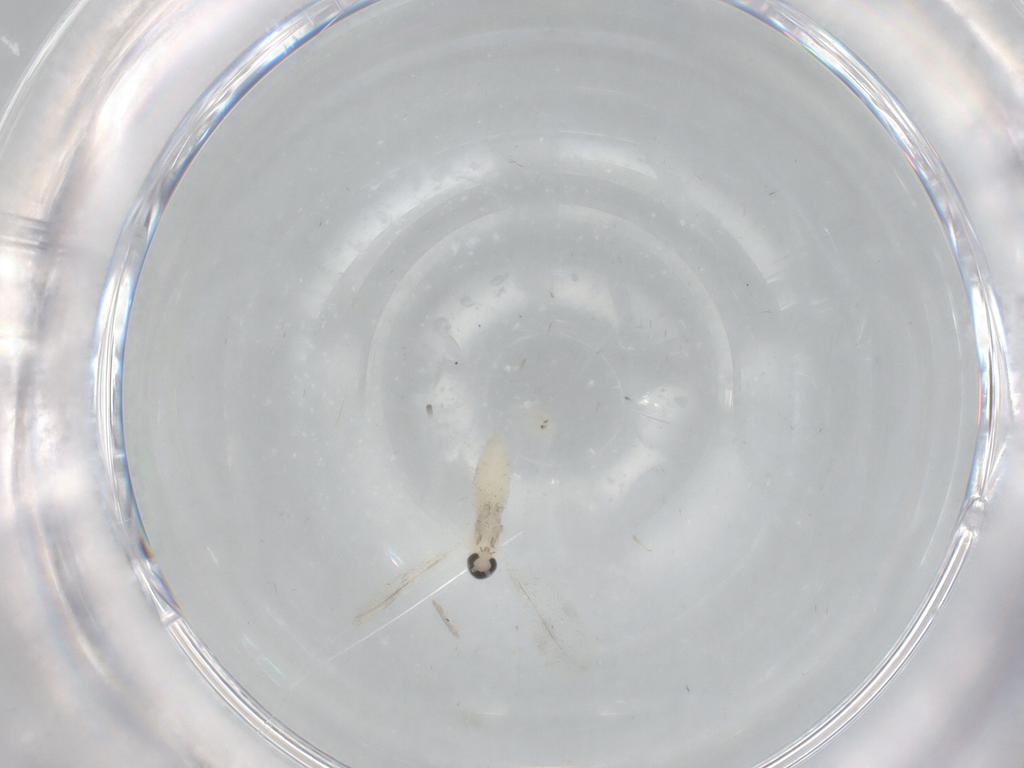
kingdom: Animalia
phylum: Arthropoda
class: Insecta
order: Diptera
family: Cecidomyiidae
